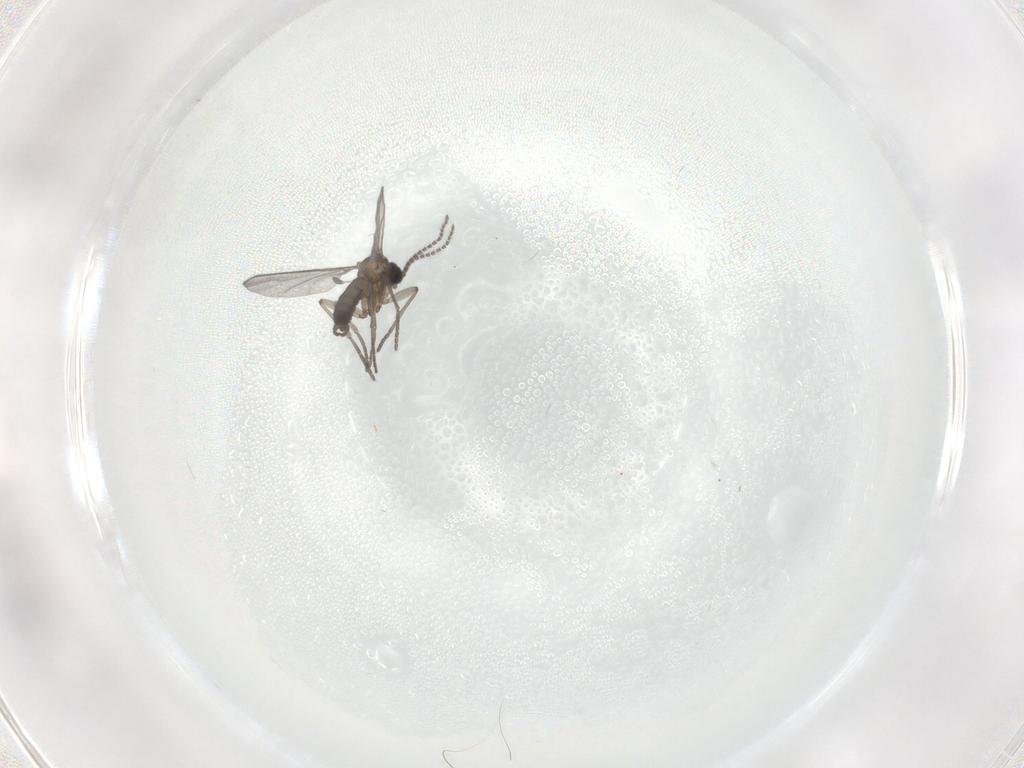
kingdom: Animalia
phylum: Arthropoda
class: Insecta
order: Diptera
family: Sciaridae
